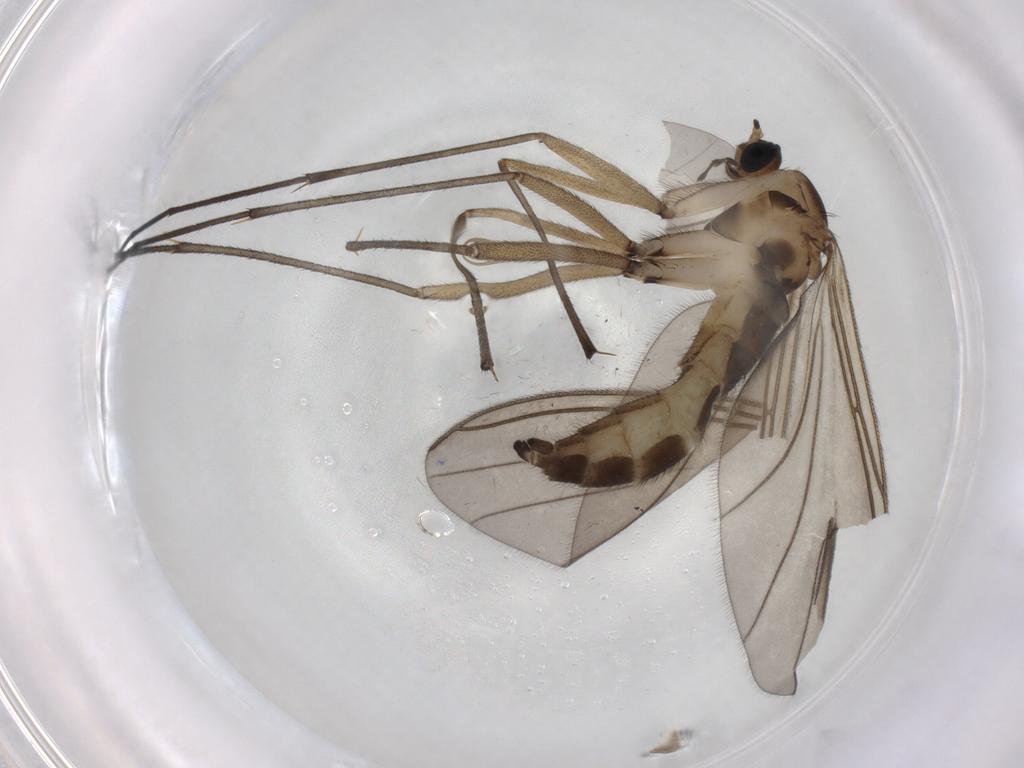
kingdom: Animalia
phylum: Arthropoda
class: Insecta
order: Diptera
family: Sciaridae
